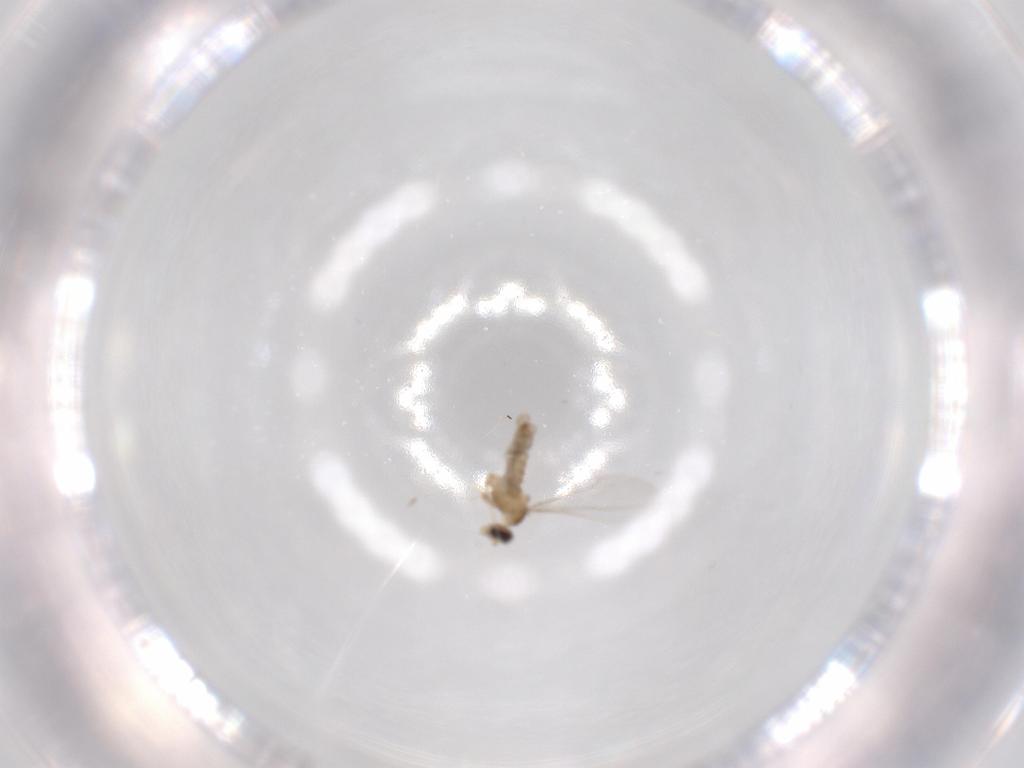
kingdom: Animalia
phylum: Arthropoda
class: Insecta
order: Diptera
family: Cecidomyiidae
